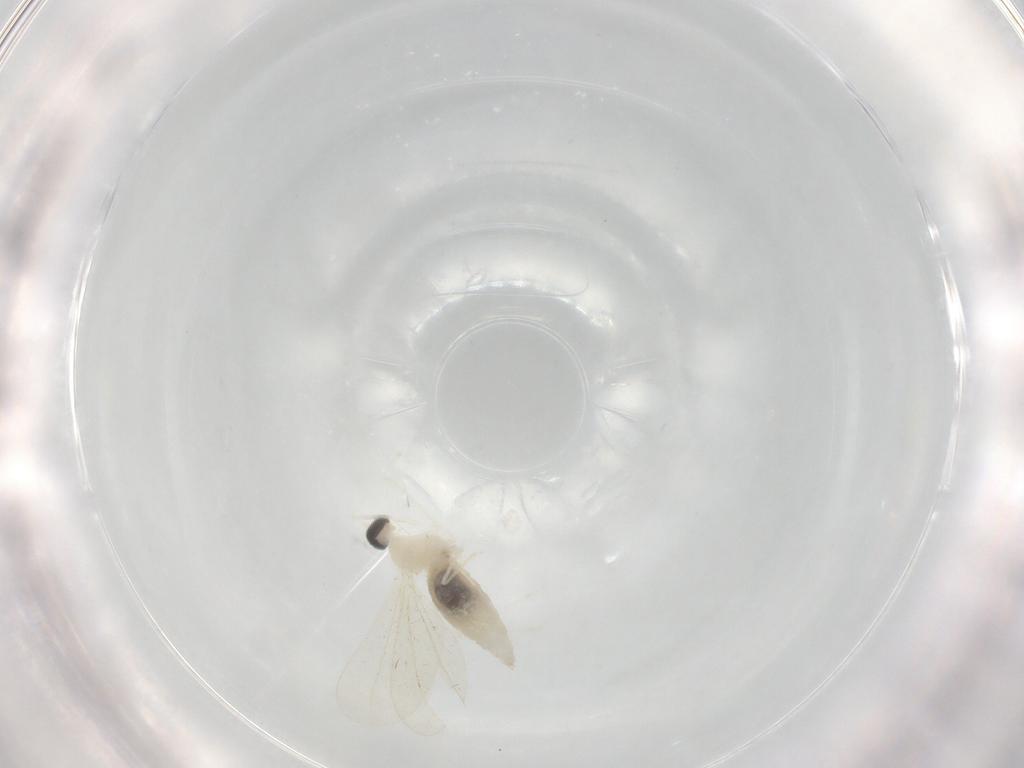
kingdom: Animalia
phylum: Arthropoda
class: Insecta
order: Diptera
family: Cecidomyiidae
